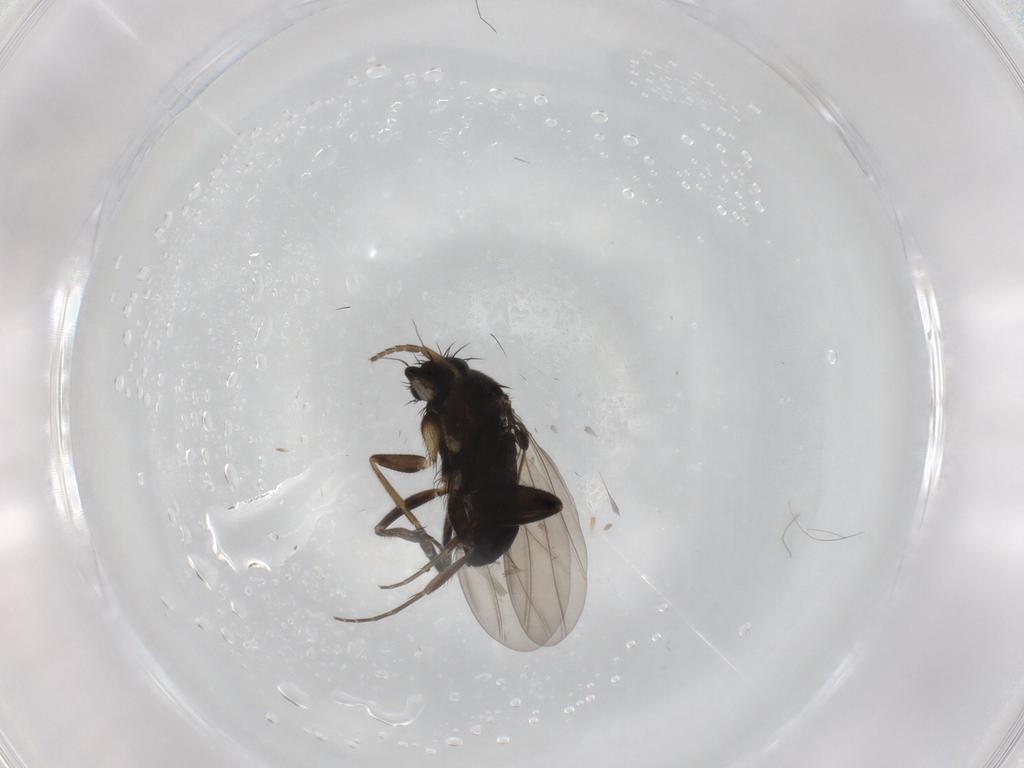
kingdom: Animalia
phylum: Arthropoda
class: Insecta
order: Diptera
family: Phoridae
